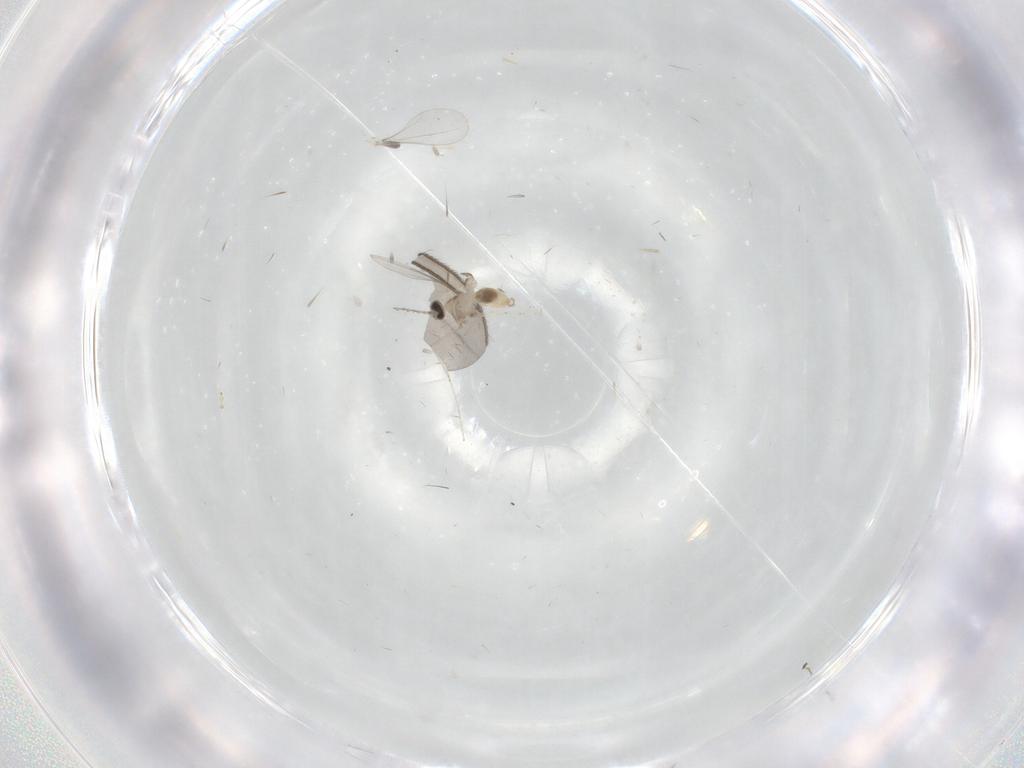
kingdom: Animalia
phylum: Arthropoda
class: Insecta
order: Diptera
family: Cecidomyiidae
